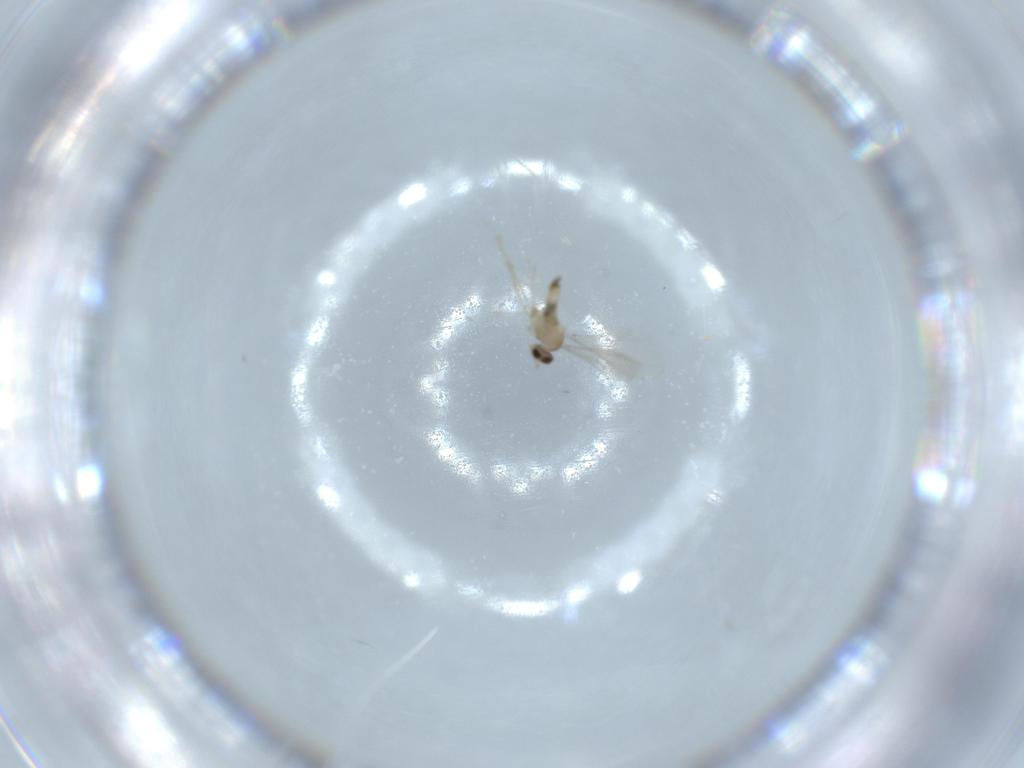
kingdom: Animalia
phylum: Arthropoda
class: Insecta
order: Diptera
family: Cecidomyiidae
